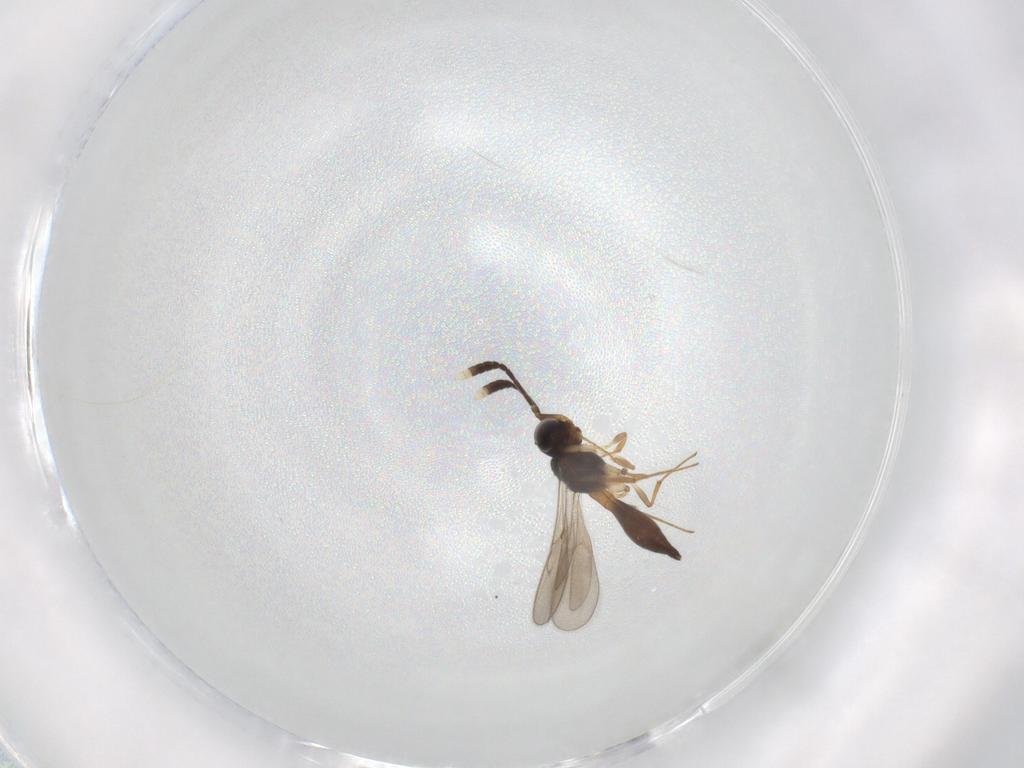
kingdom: Animalia
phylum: Arthropoda
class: Insecta
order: Hymenoptera
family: Scelionidae
